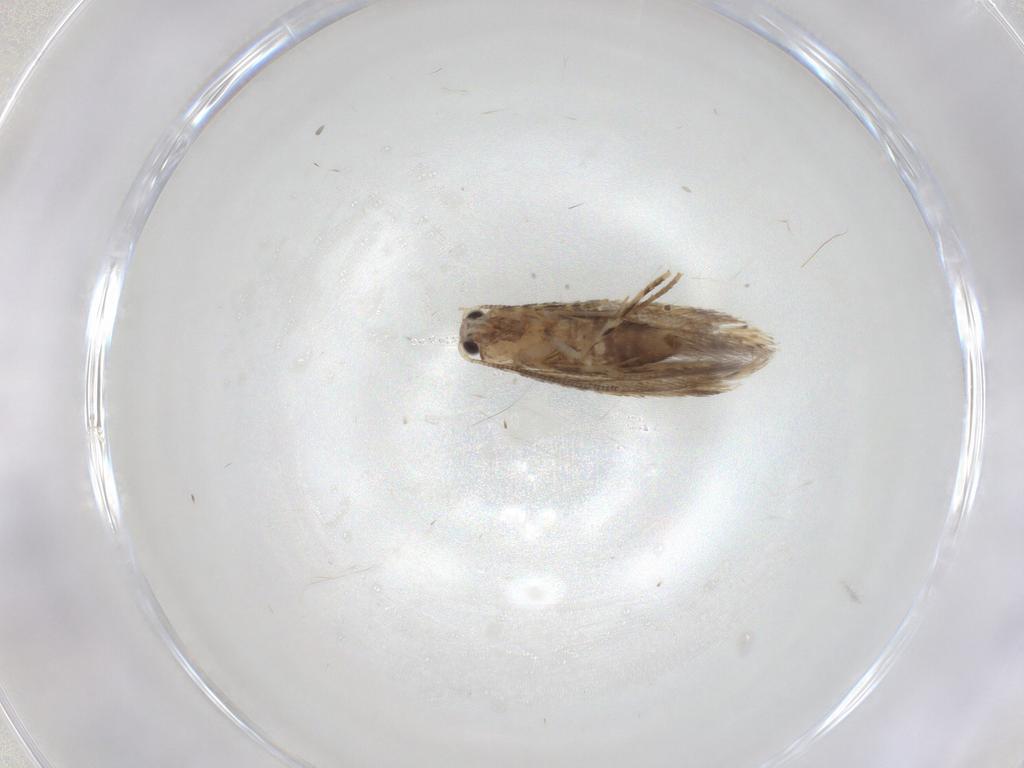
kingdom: Animalia
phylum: Arthropoda
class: Insecta
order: Lepidoptera
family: Tineidae
